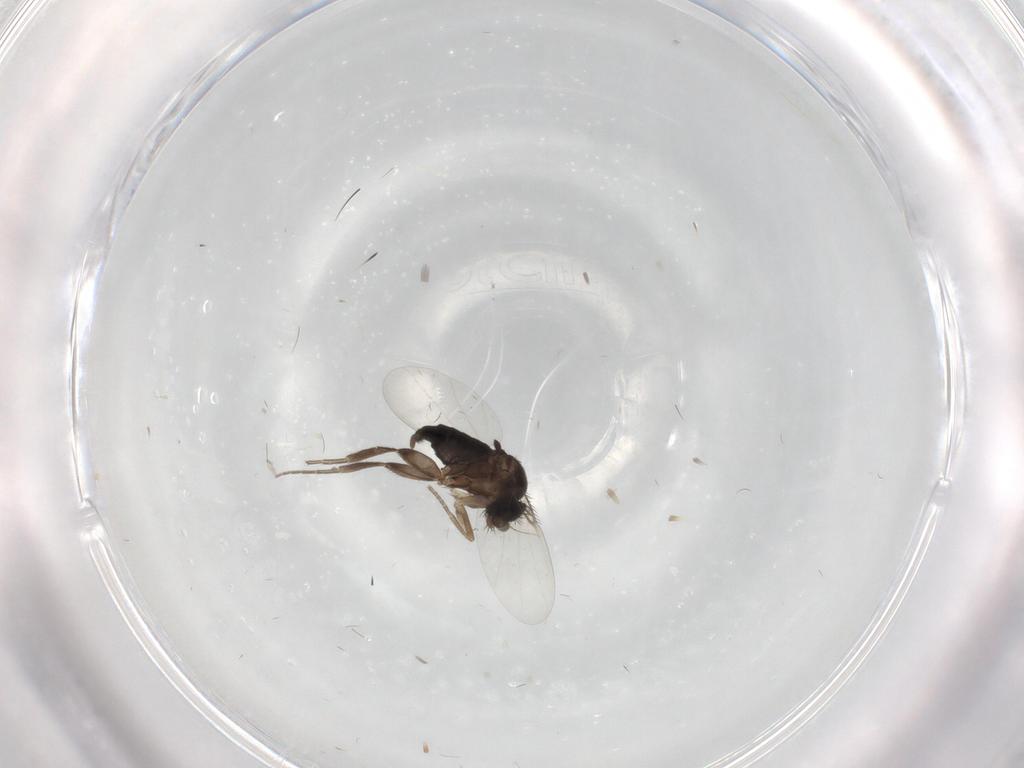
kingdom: Animalia
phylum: Arthropoda
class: Insecta
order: Diptera
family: Phoridae
